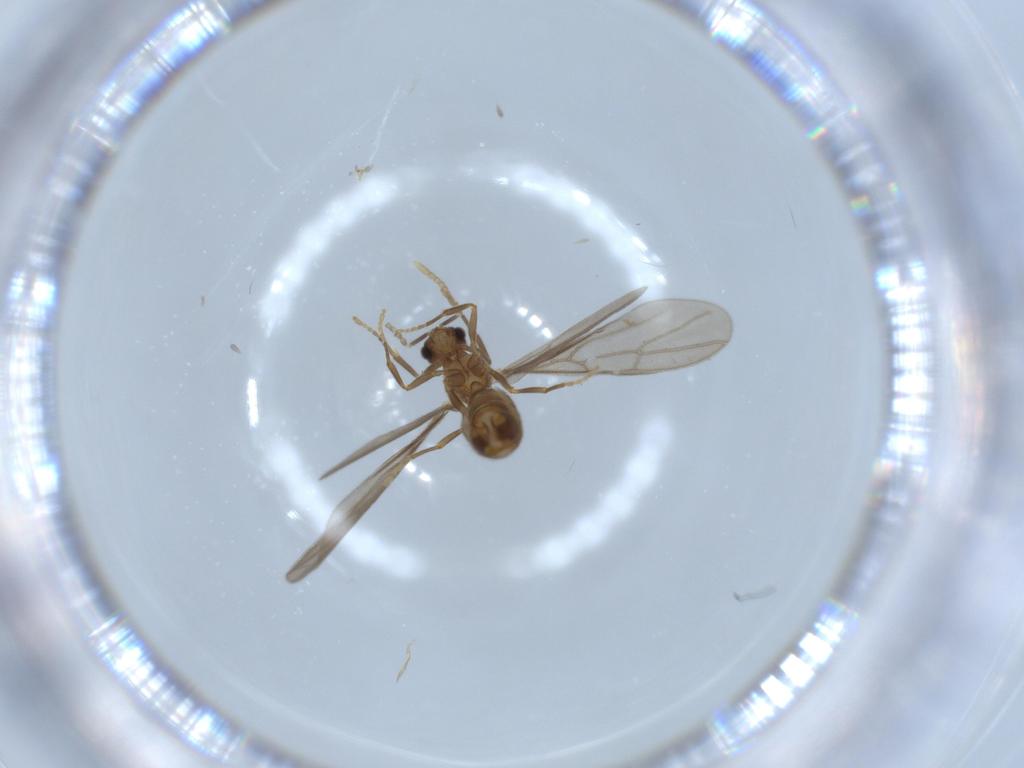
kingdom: Animalia
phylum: Arthropoda
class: Insecta
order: Hymenoptera
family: Formicidae
